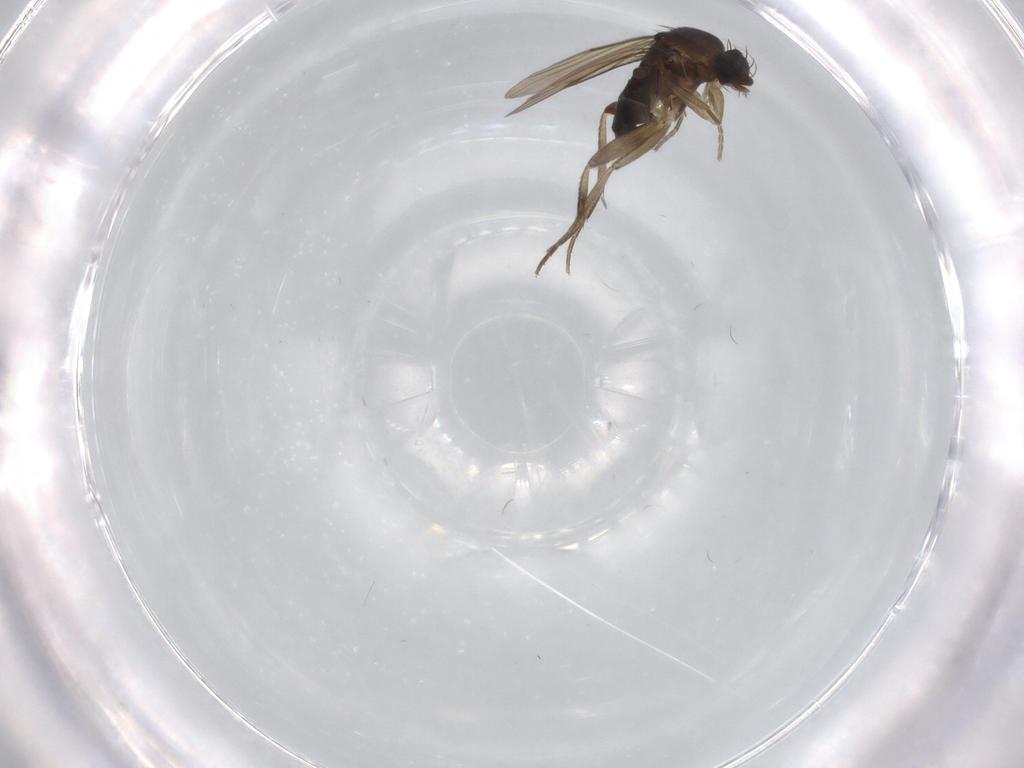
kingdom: Animalia
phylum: Arthropoda
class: Insecta
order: Diptera
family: Phoridae
